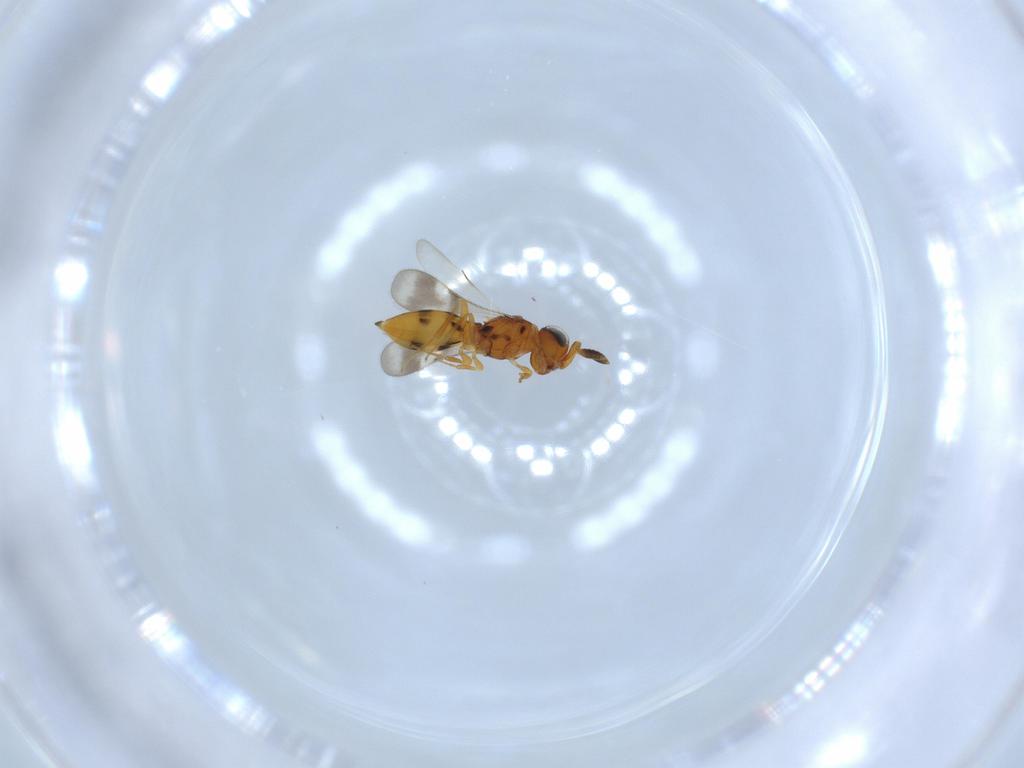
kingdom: Animalia
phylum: Arthropoda
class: Insecta
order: Hymenoptera
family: Scelionidae
